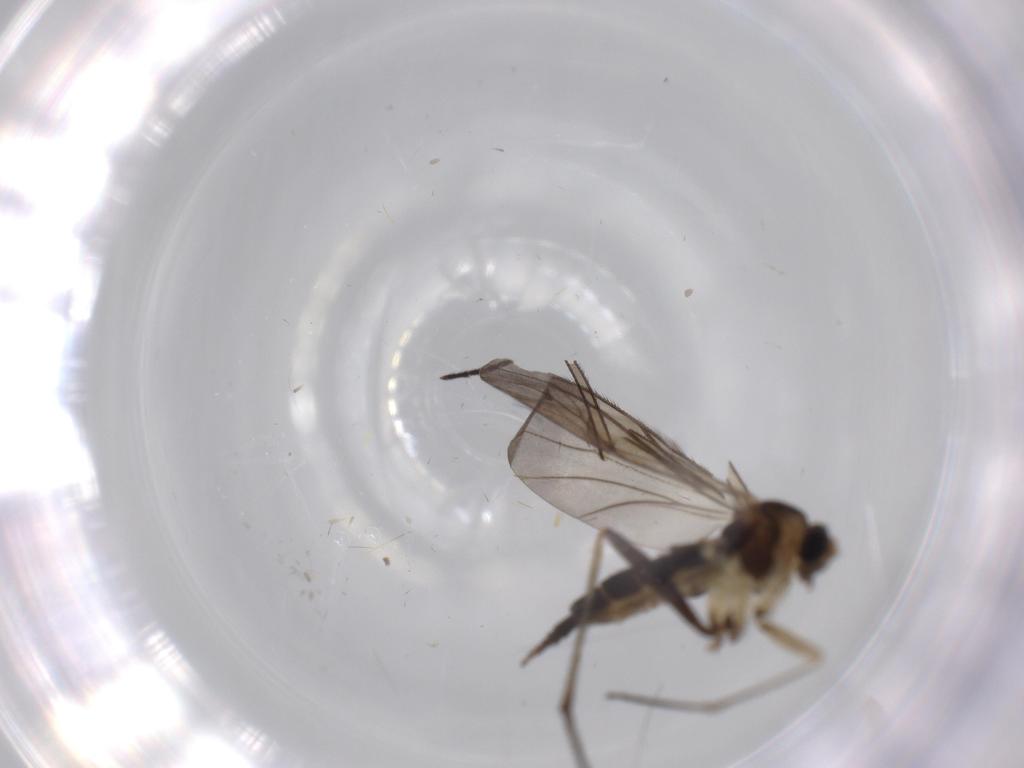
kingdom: Animalia
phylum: Arthropoda
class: Insecta
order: Diptera
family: Sciaridae
